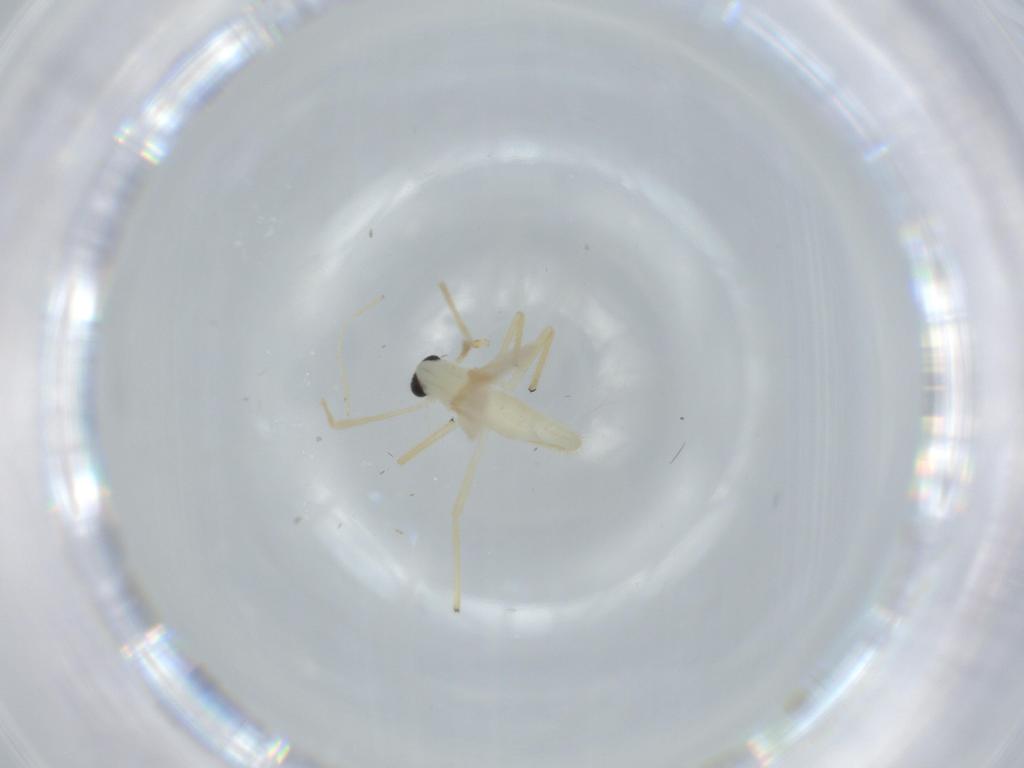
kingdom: Animalia
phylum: Arthropoda
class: Insecta
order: Diptera
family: Chironomidae
